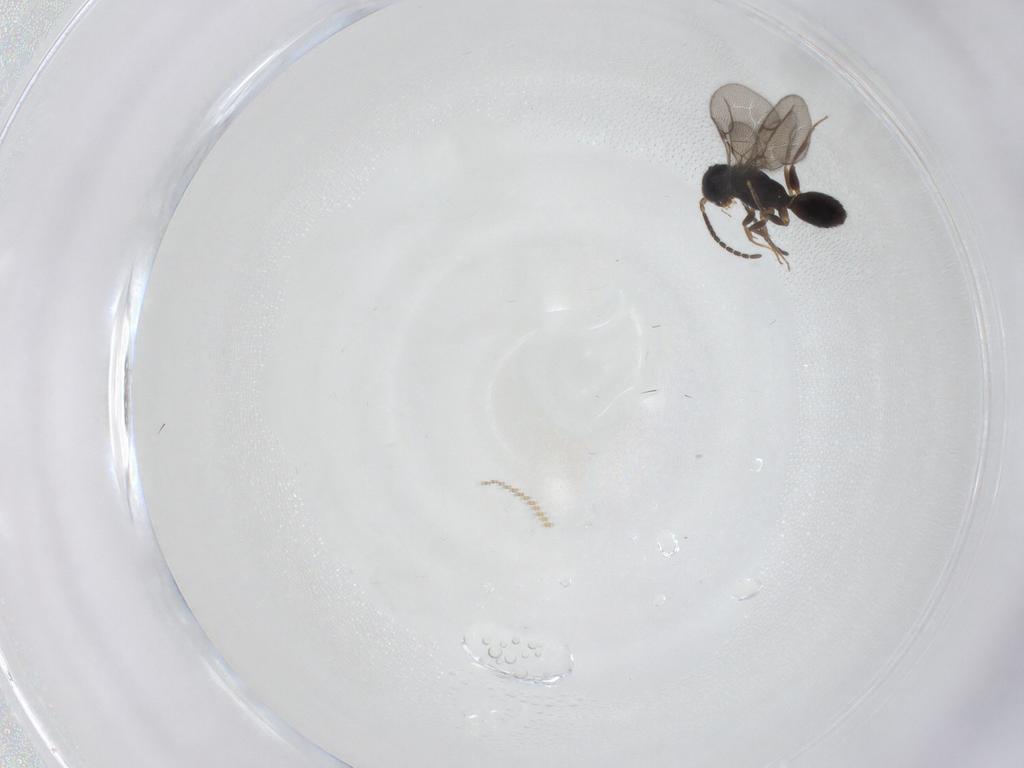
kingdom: Animalia
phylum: Arthropoda
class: Insecta
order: Hymenoptera
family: Bethylidae
